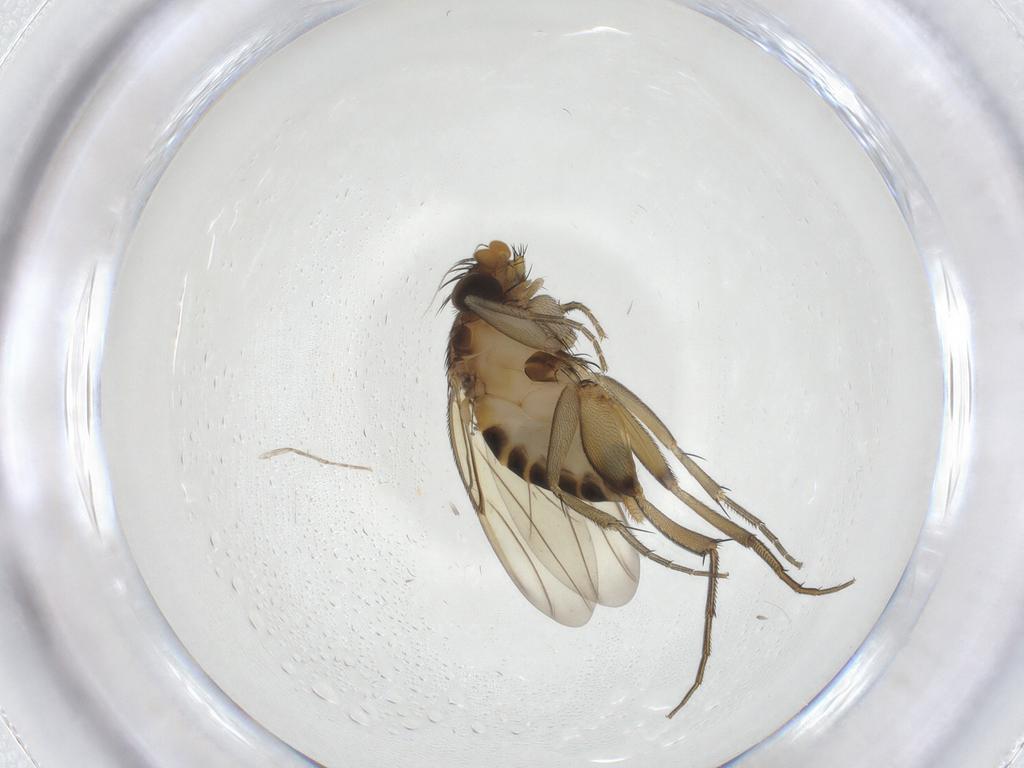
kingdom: Animalia
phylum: Arthropoda
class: Insecta
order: Diptera
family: Phoridae
